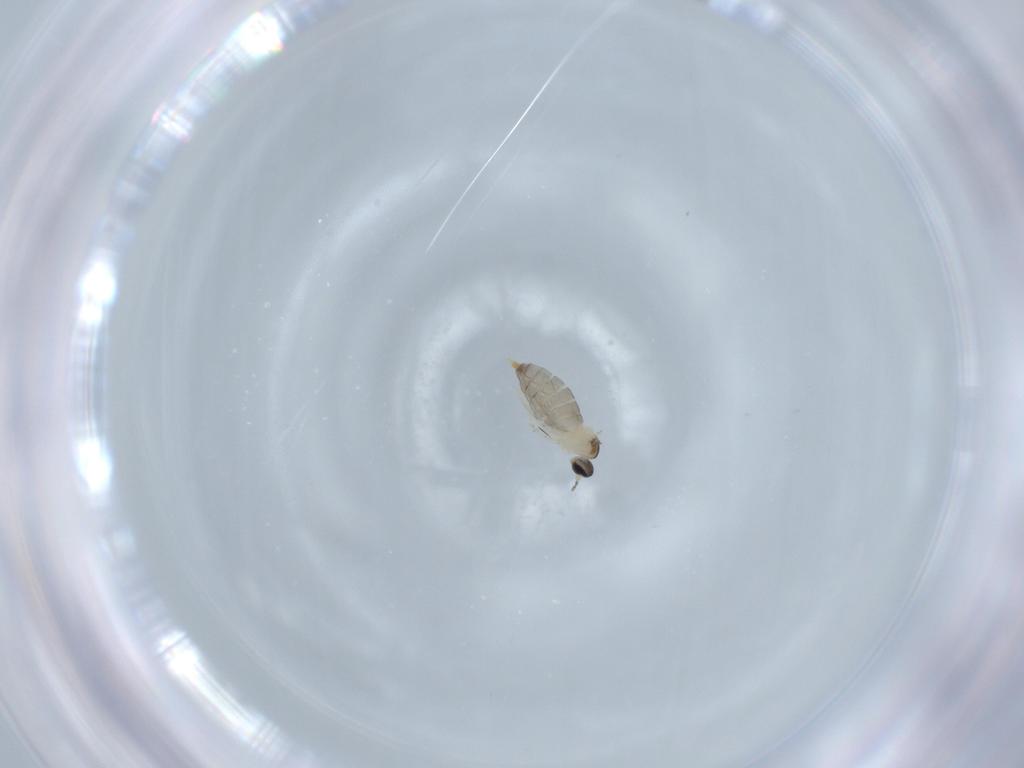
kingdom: Animalia
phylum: Arthropoda
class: Insecta
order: Diptera
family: Cecidomyiidae
